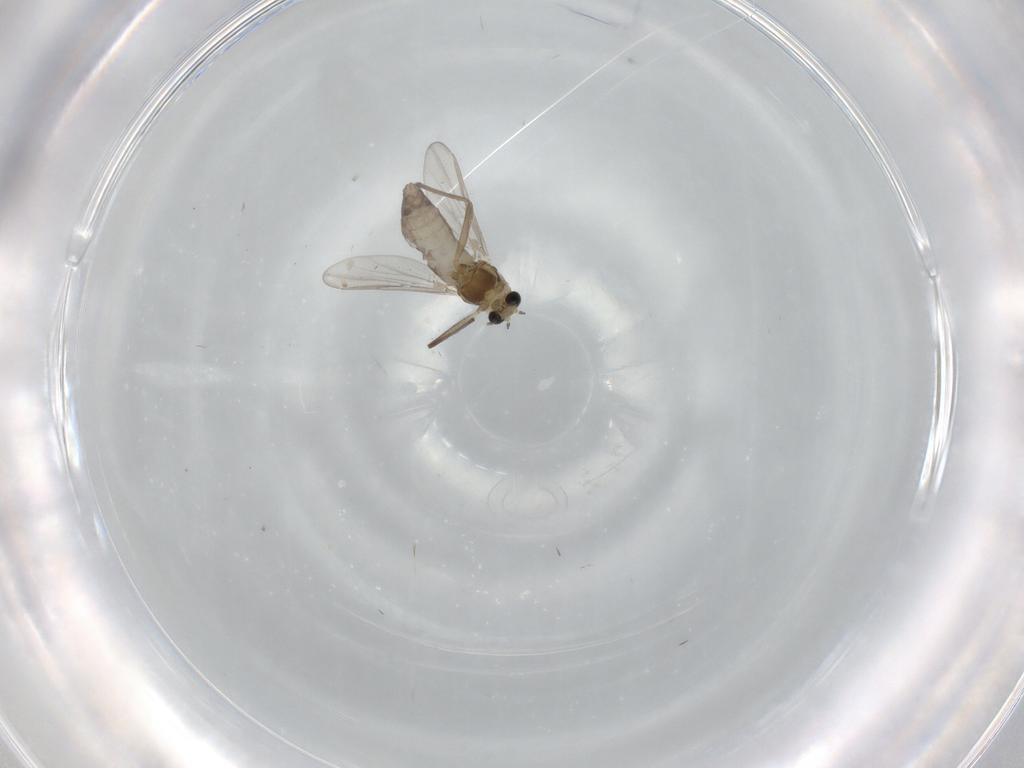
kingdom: Animalia
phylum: Arthropoda
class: Insecta
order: Diptera
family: Chironomidae
